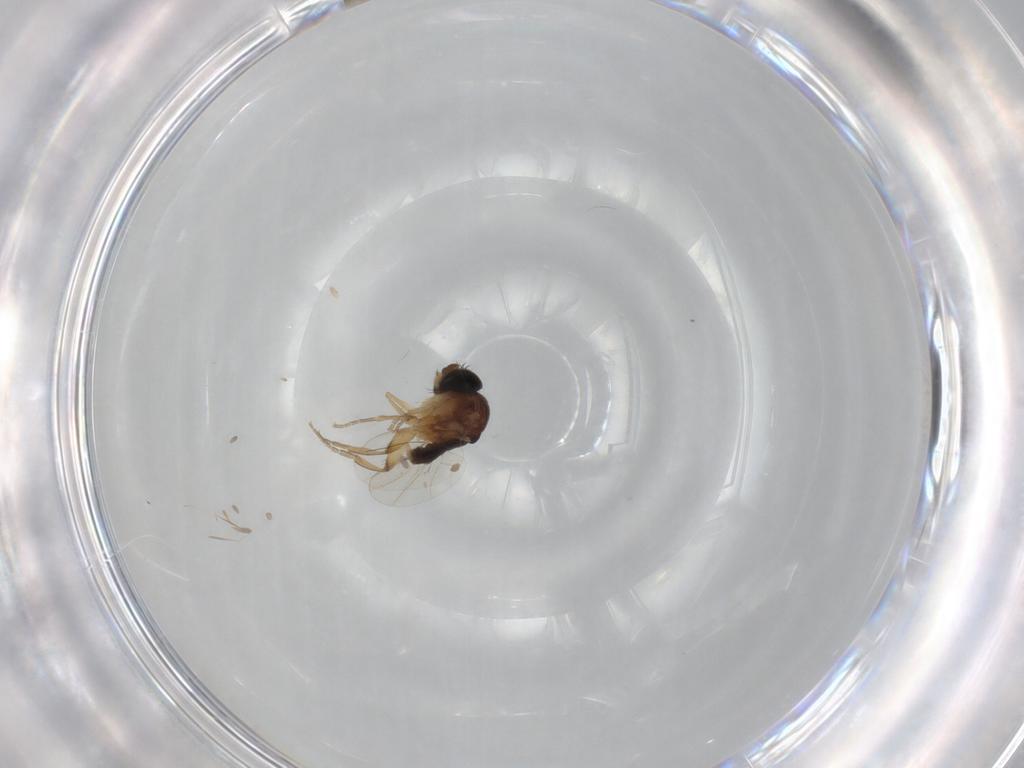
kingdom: Animalia
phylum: Arthropoda
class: Insecta
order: Diptera
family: Phoridae
